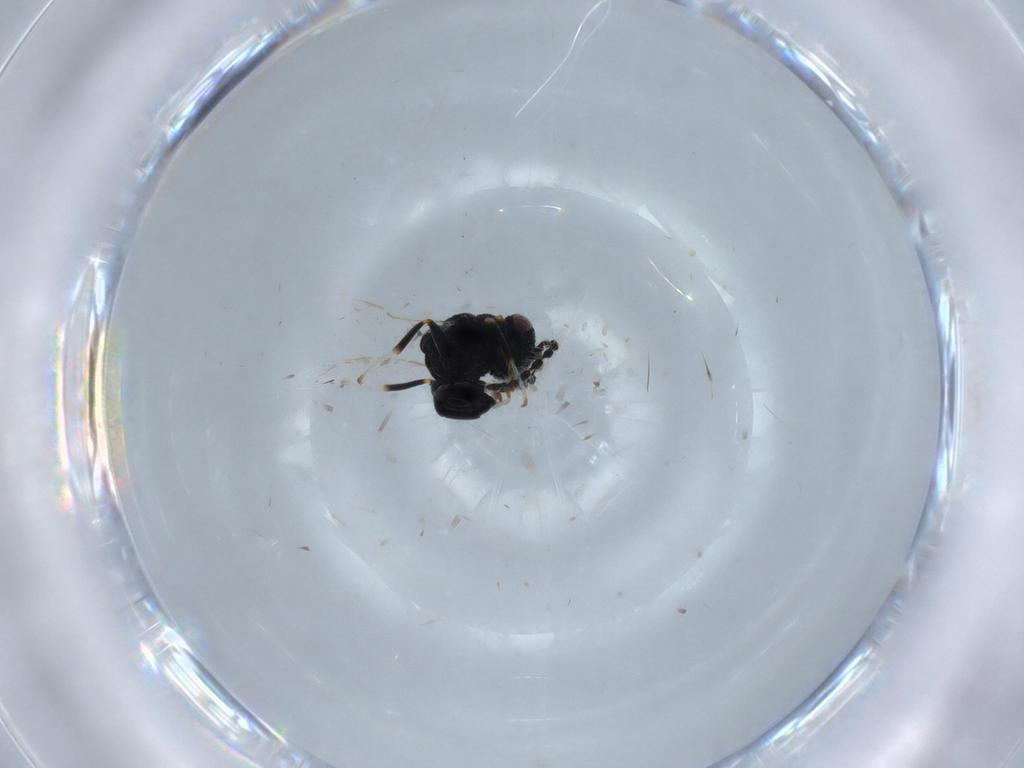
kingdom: Animalia
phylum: Arthropoda
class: Insecta
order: Hymenoptera
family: Eurytomidae
